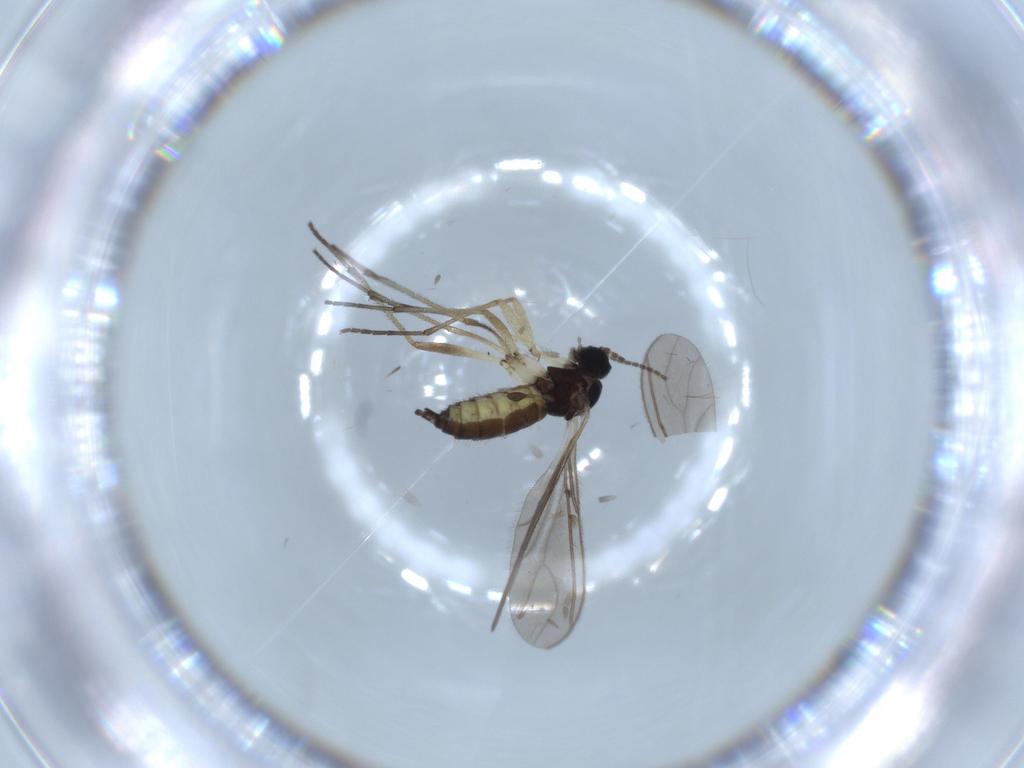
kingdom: Animalia
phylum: Arthropoda
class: Insecta
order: Diptera
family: Sciaridae
